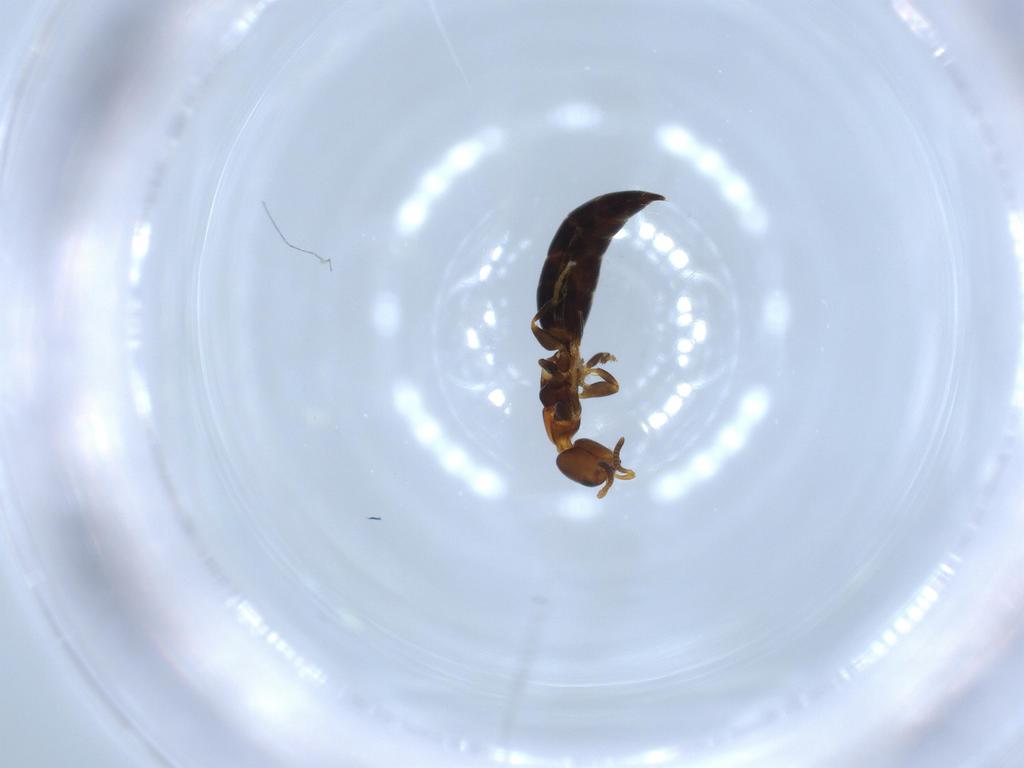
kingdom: Animalia
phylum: Arthropoda
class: Insecta
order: Hymenoptera
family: Bethylidae
